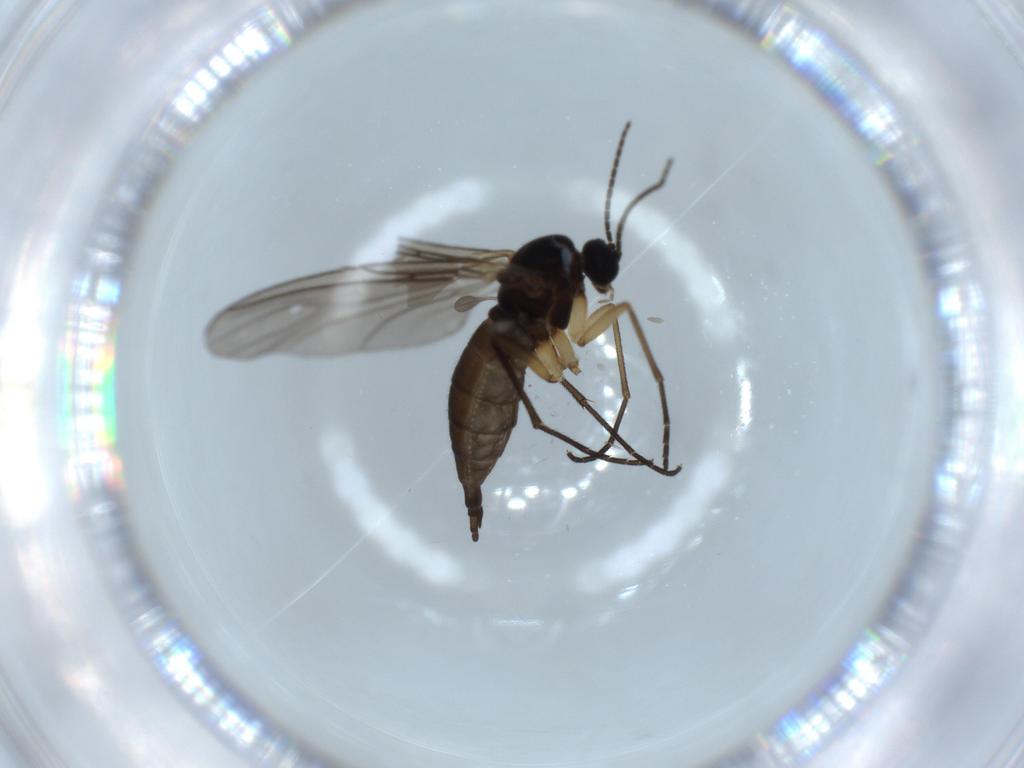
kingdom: Animalia
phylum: Arthropoda
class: Insecta
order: Diptera
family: Sciaridae
